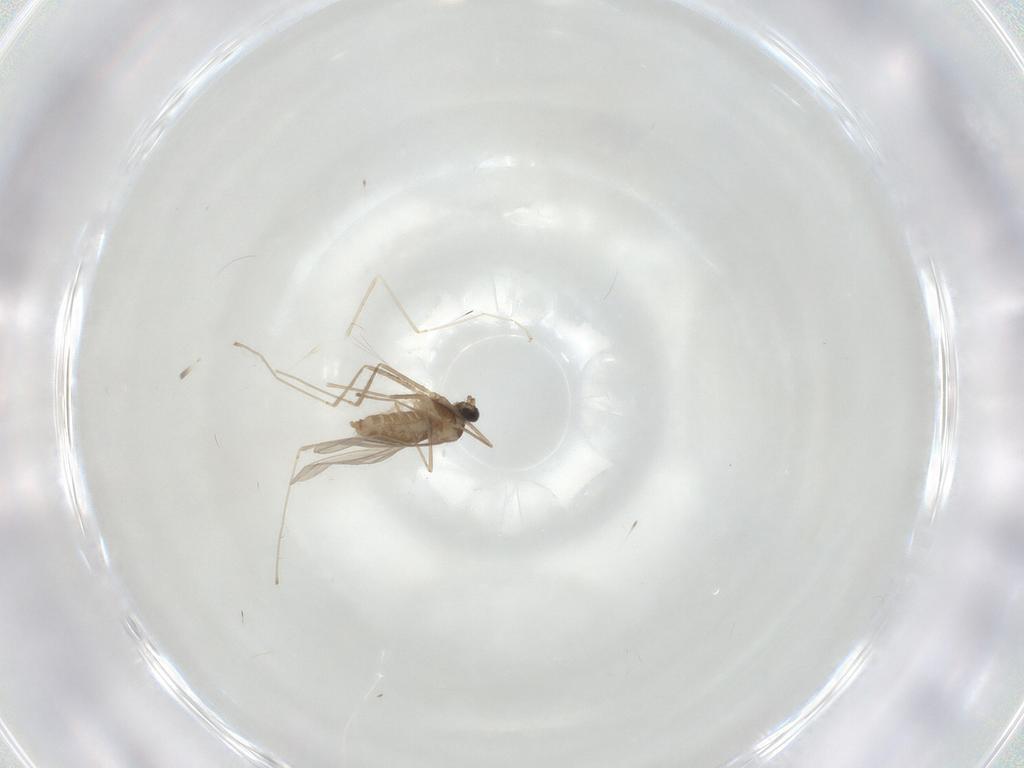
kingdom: Animalia
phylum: Arthropoda
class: Insecta
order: Diptera
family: Cecidomyiidae
